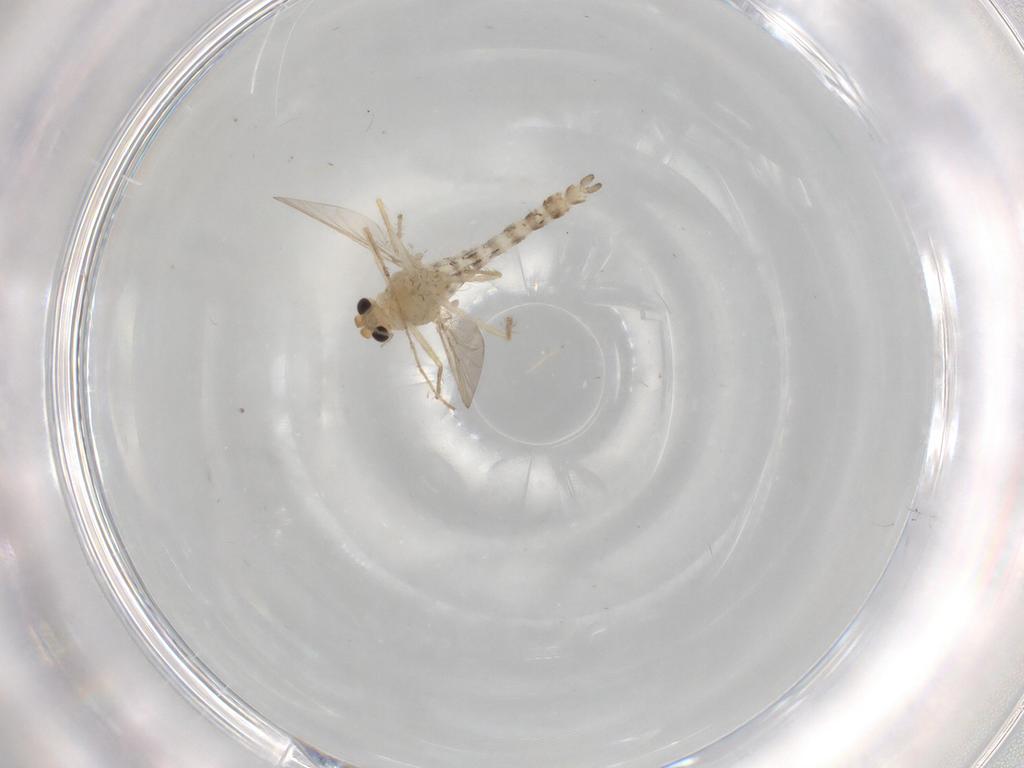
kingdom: Animalia
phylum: Arthropoda
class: Insecta
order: Diptera
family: Chironomidae
